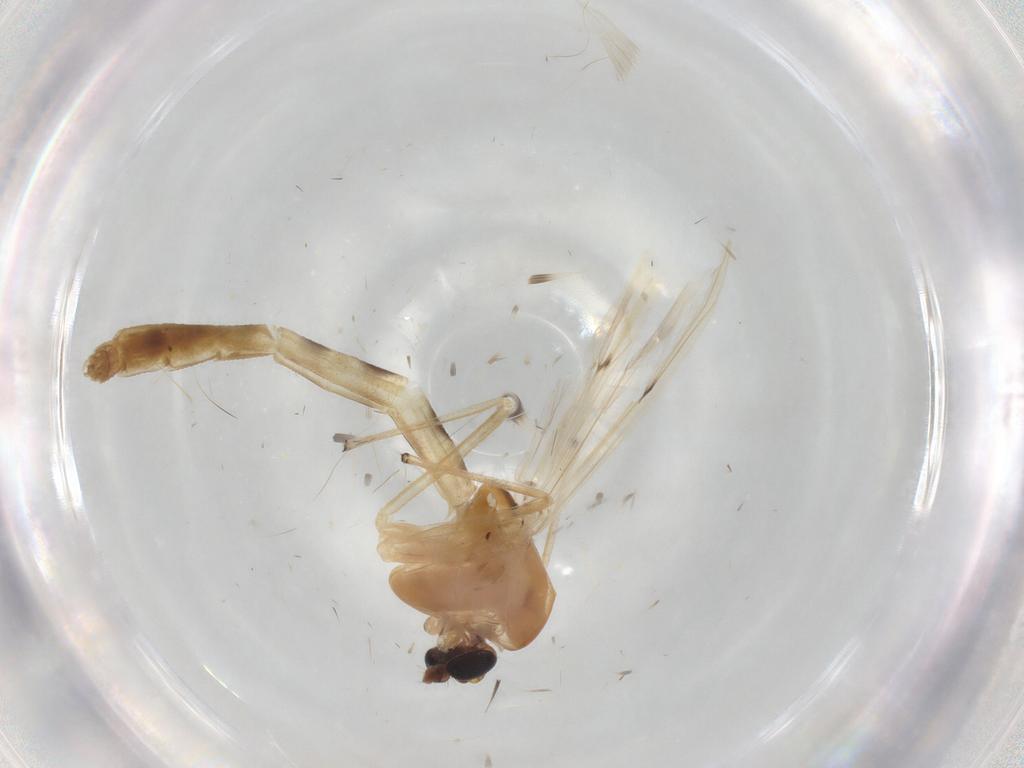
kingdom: Animalia
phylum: Arthropoda
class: Insecta
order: Diptera
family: Chironomidae
